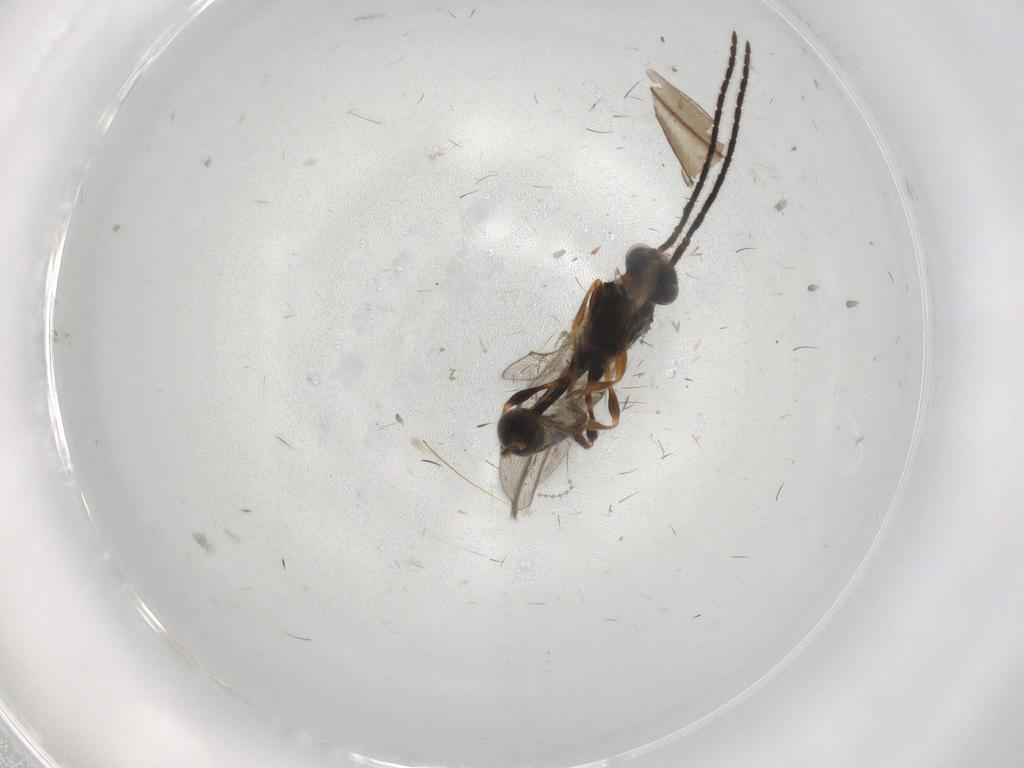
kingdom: Animalia
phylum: Arthropoda
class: Insecta
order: Hymenoptera
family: Diapriidae
